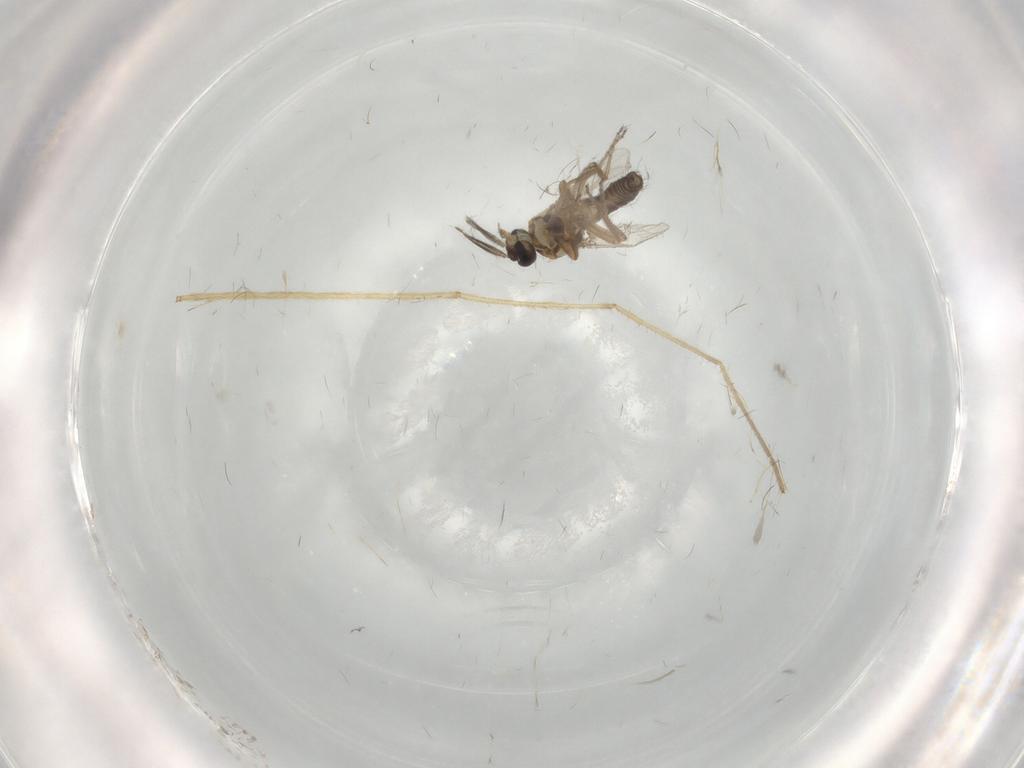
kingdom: Animalia
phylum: Arthropoda
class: Insecta
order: Diptera
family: Ceratopogonidae
